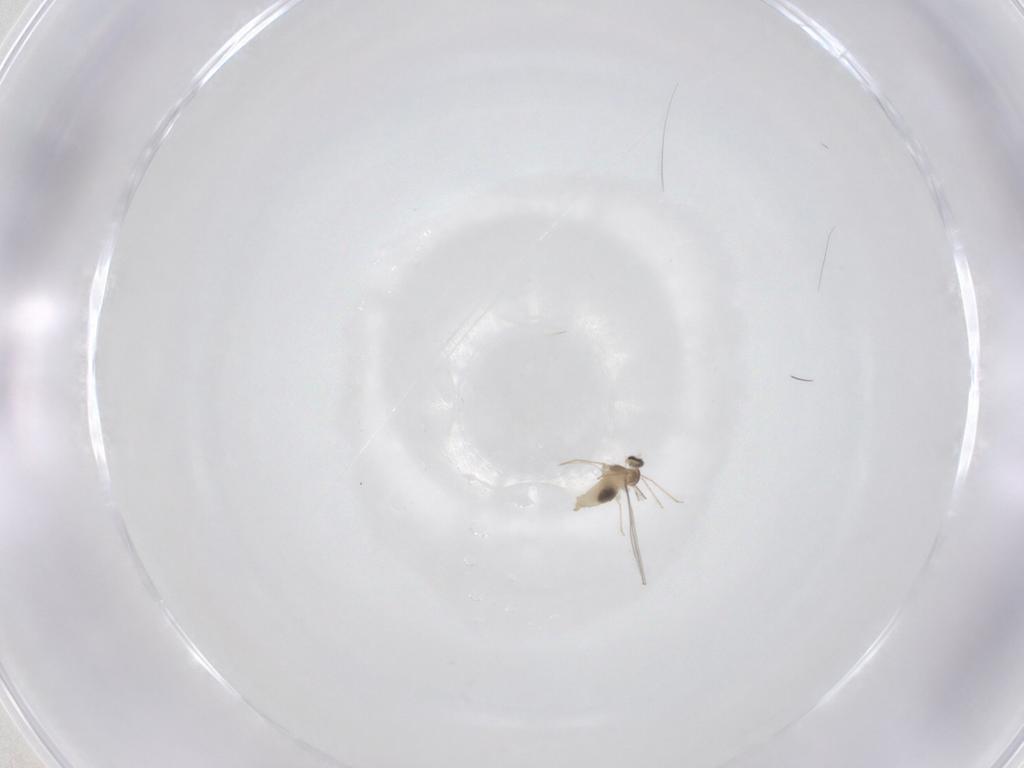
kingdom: Animalia
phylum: Arthropoda
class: Insecta
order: Diptera
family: Cecidomyiidae
